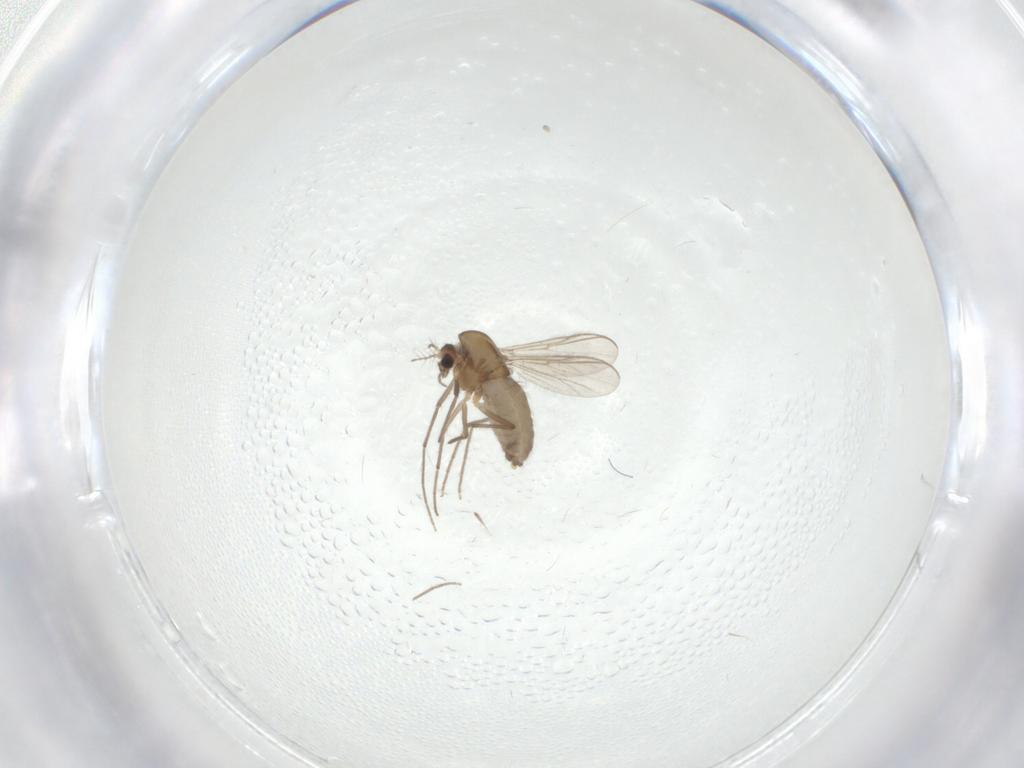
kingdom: Animalia
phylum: Arthropoda
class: Insecta
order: Diptera
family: Chironomidae
